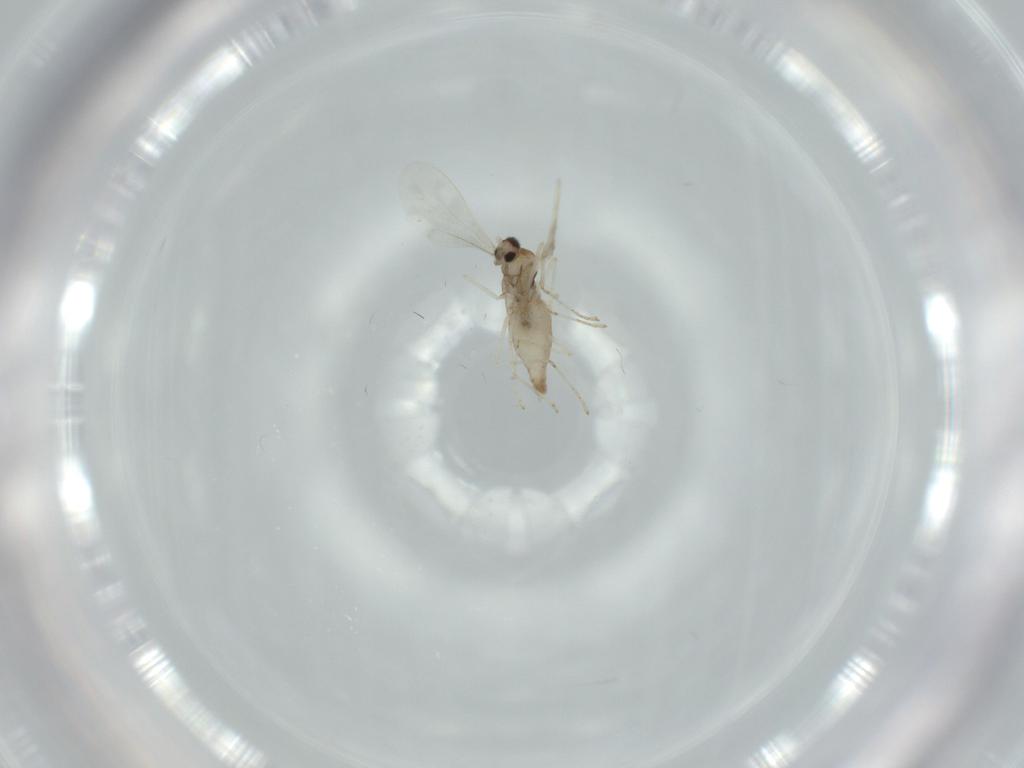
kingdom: Animalia
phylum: Arthropoda
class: Insecta
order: Diptera
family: Cecidomyiidae
